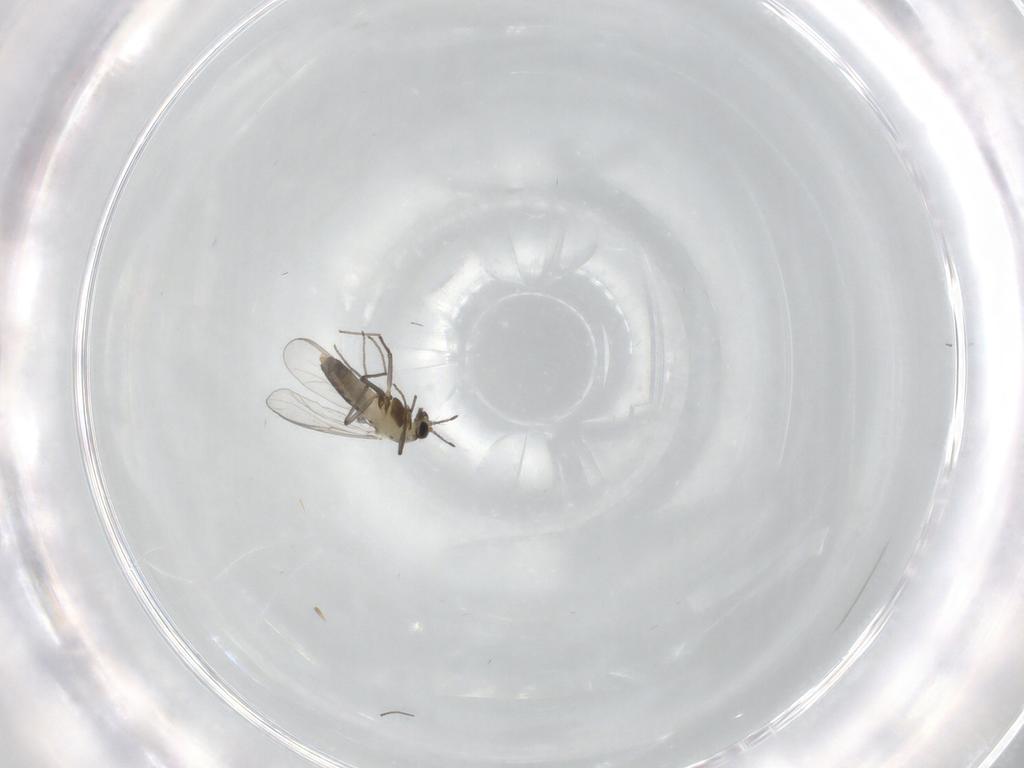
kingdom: Animalia
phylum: Arthropoda
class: Insecta
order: Diptera
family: Chironomidae
